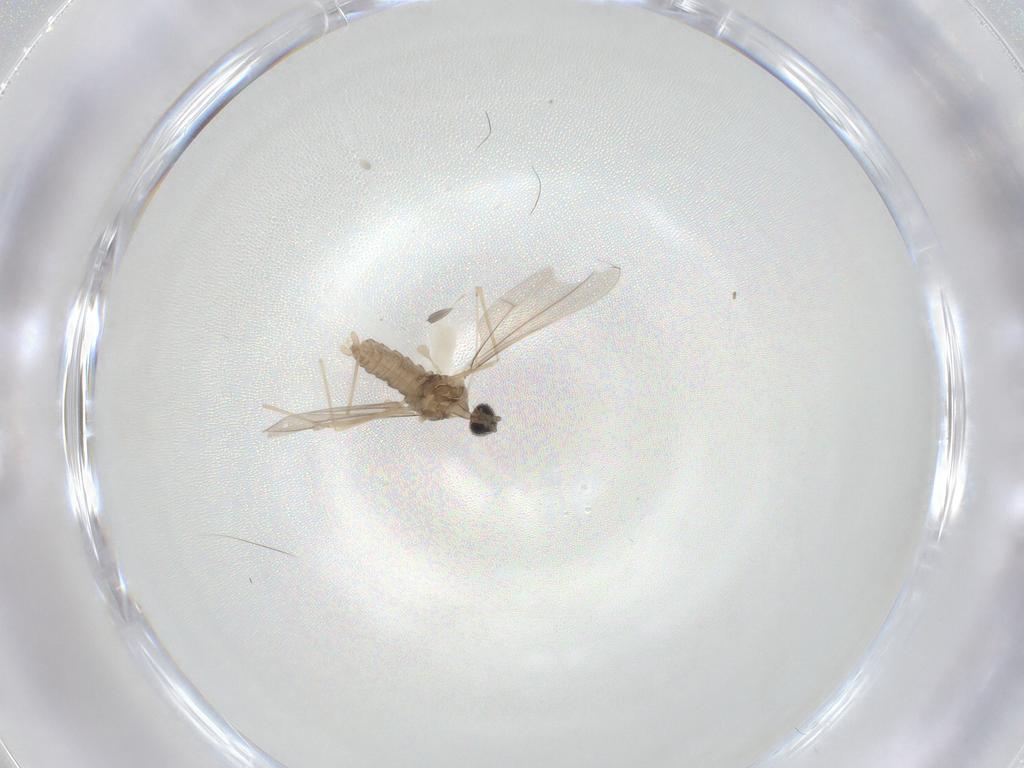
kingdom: Animalia
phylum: Arthropoda
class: Insecta
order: Diptera
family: Cecidomyiidae
